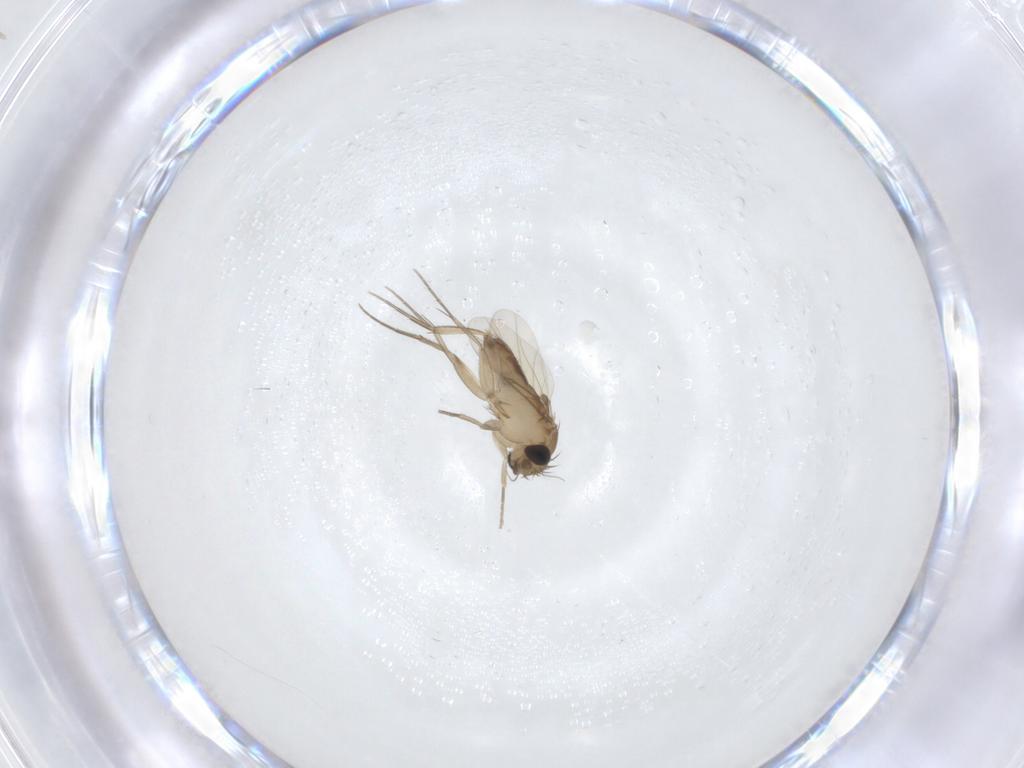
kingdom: Animalia
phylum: Arthropoda
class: Insecta
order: Diptera
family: Phoridae
